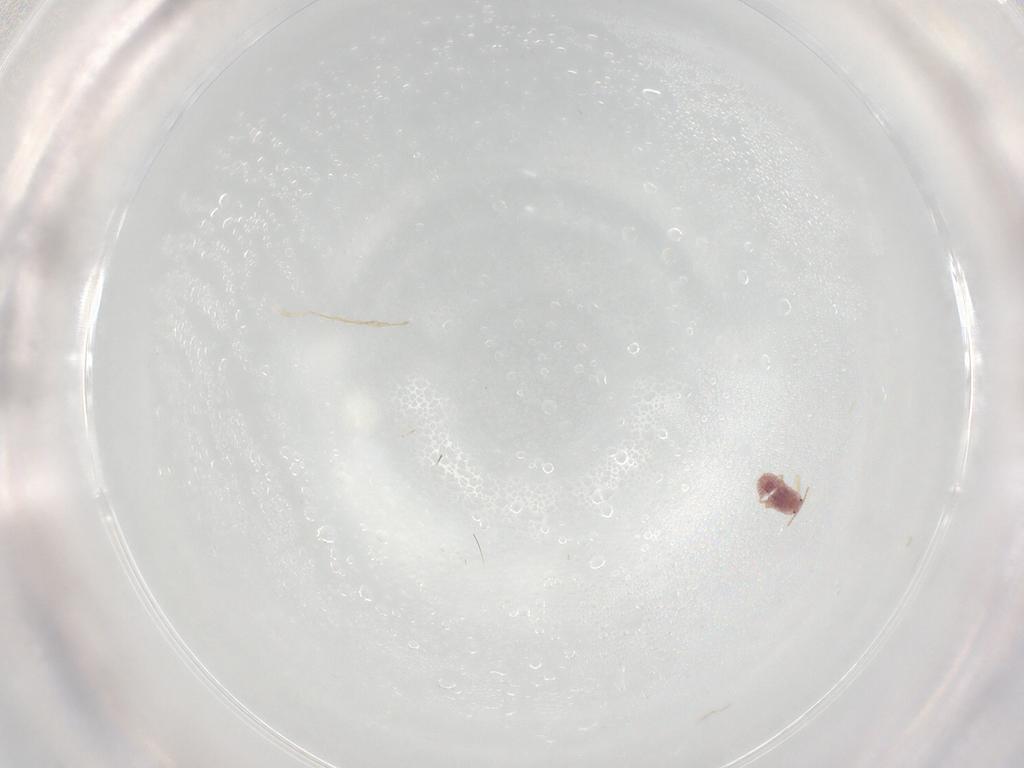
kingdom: Animalia
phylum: Arthropoda
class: Insecta
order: Hemiptera
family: Aleyrodidae
